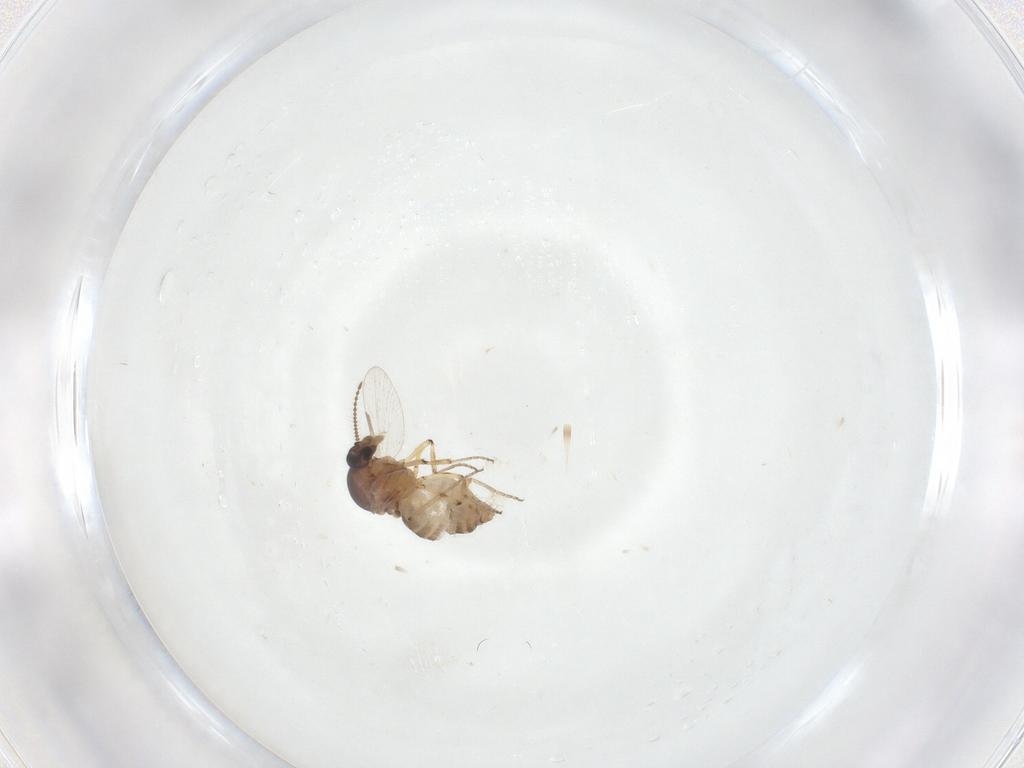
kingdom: Animalia
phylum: Arthropoda
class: Insecta
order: Diptera
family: Ceratopogonidae
